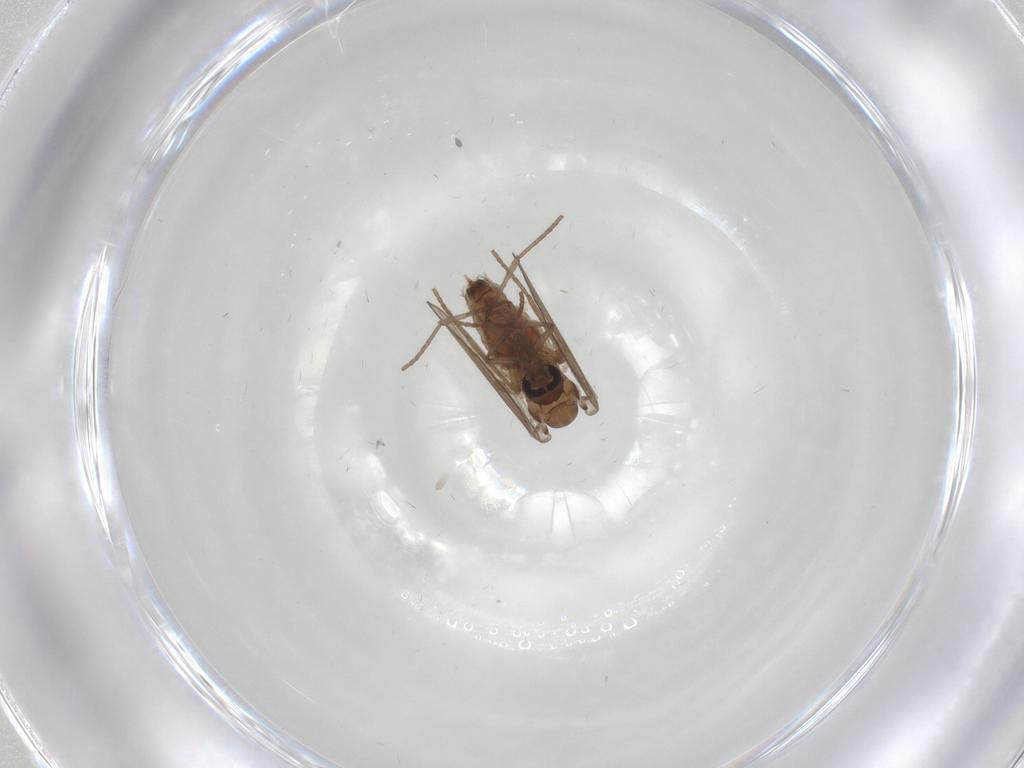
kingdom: Animalia
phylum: Arthropoda
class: Insecta
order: Diptera
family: Psychodidae
